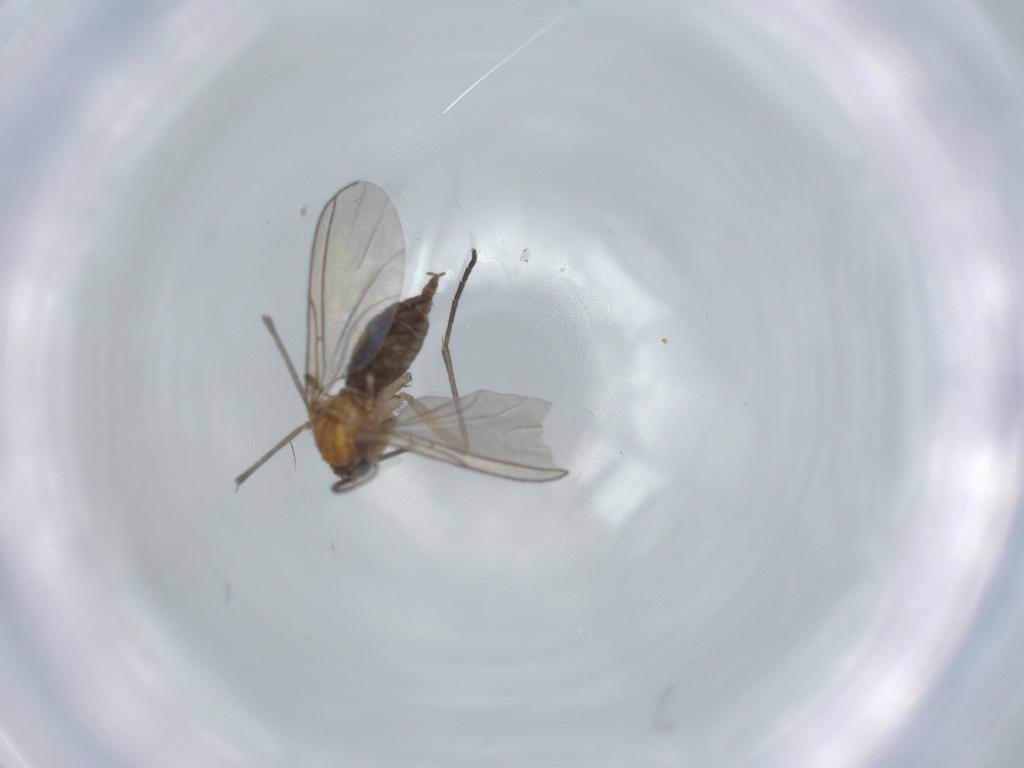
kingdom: Animalia
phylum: Arthropoda
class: Insecta
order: Diptera
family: Sciaridae
